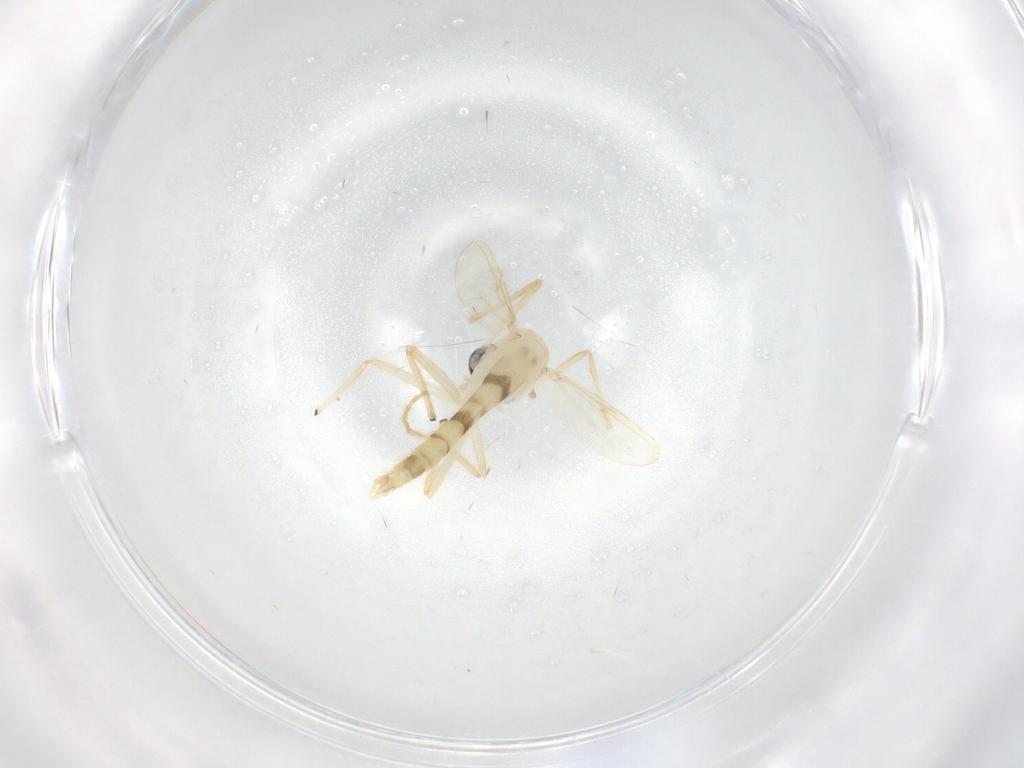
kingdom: Animalia
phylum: Arthropoda
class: Insecta
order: Diptera
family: Chironomidae
